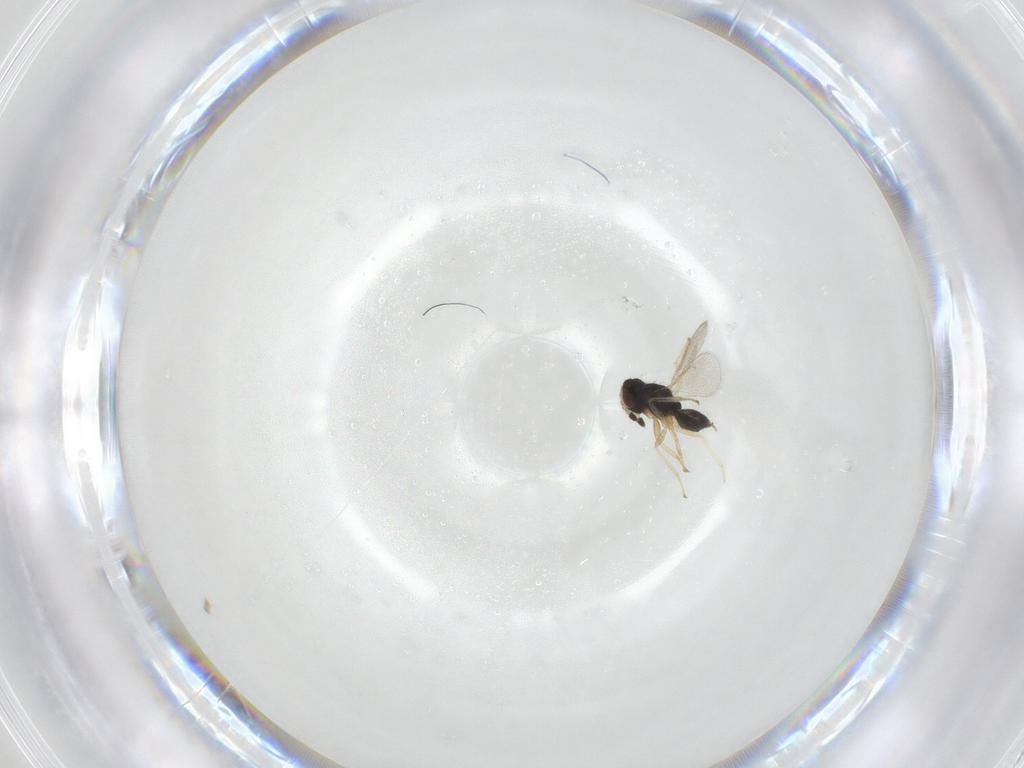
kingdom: Animalia
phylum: Arthropoda
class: Insecta
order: Hymenoptera
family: Eulophidae
